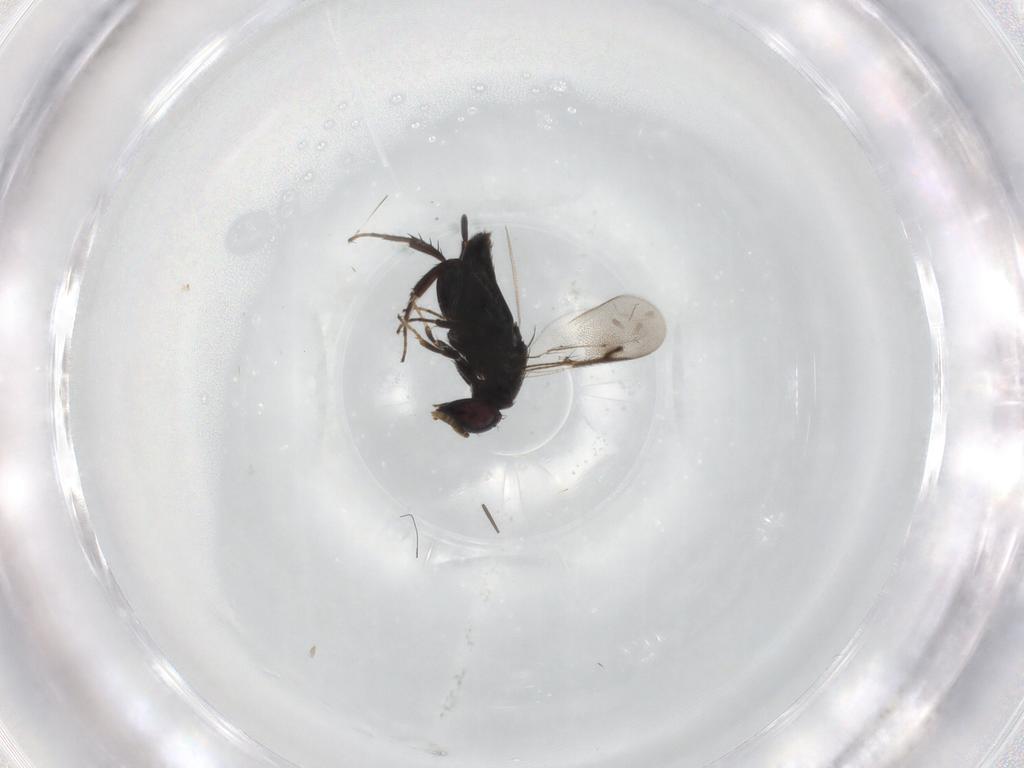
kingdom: Animalia
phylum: Arthropoda
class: Insecta
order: Hymenoptera
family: Pirenidae
